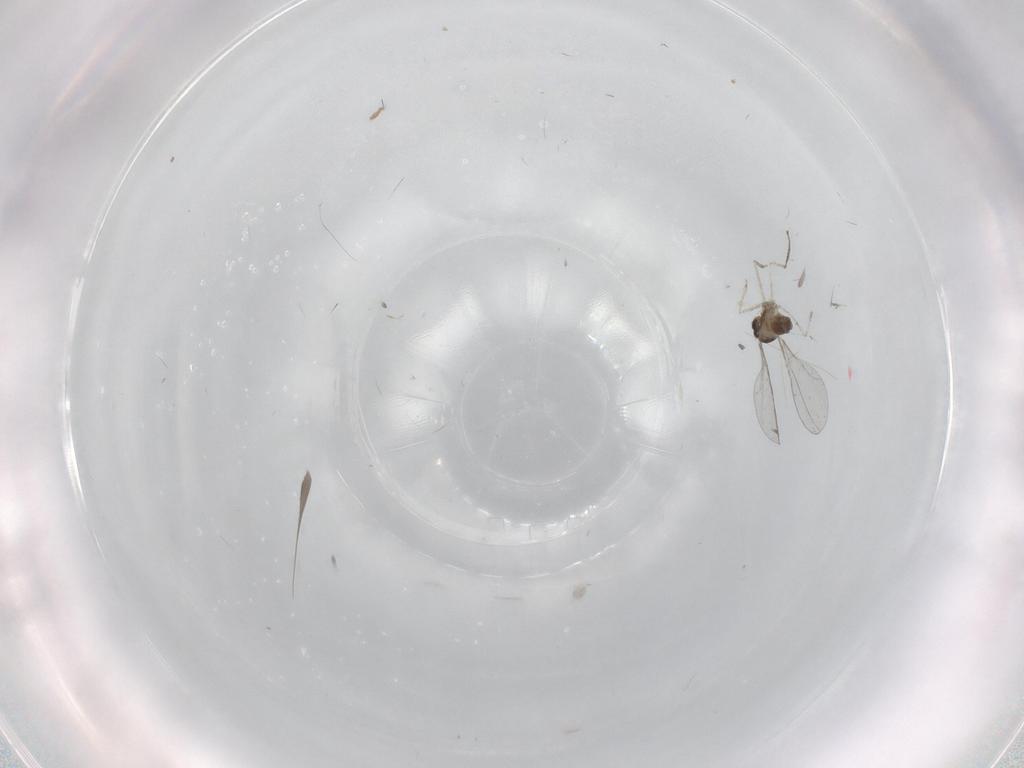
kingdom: Animalia
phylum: Arthropoda
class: Insecta
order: Diptera
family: Cecidomyiidae
